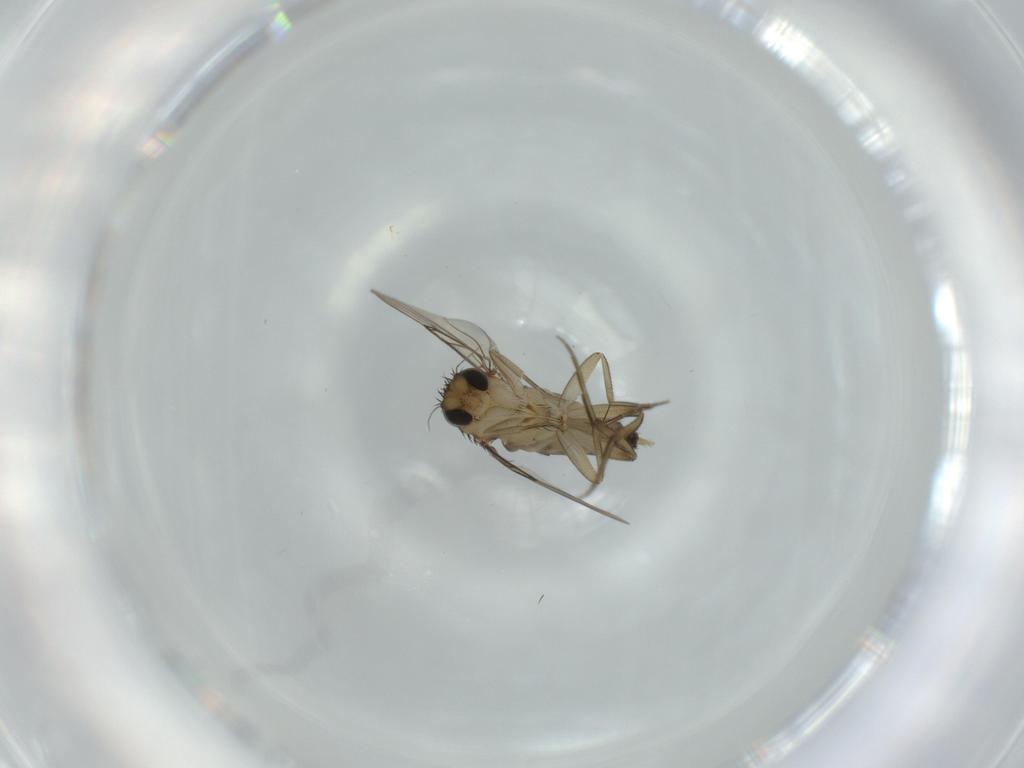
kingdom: Animalia
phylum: Arthropoda
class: Insecta
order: Diptera
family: Phoridae
